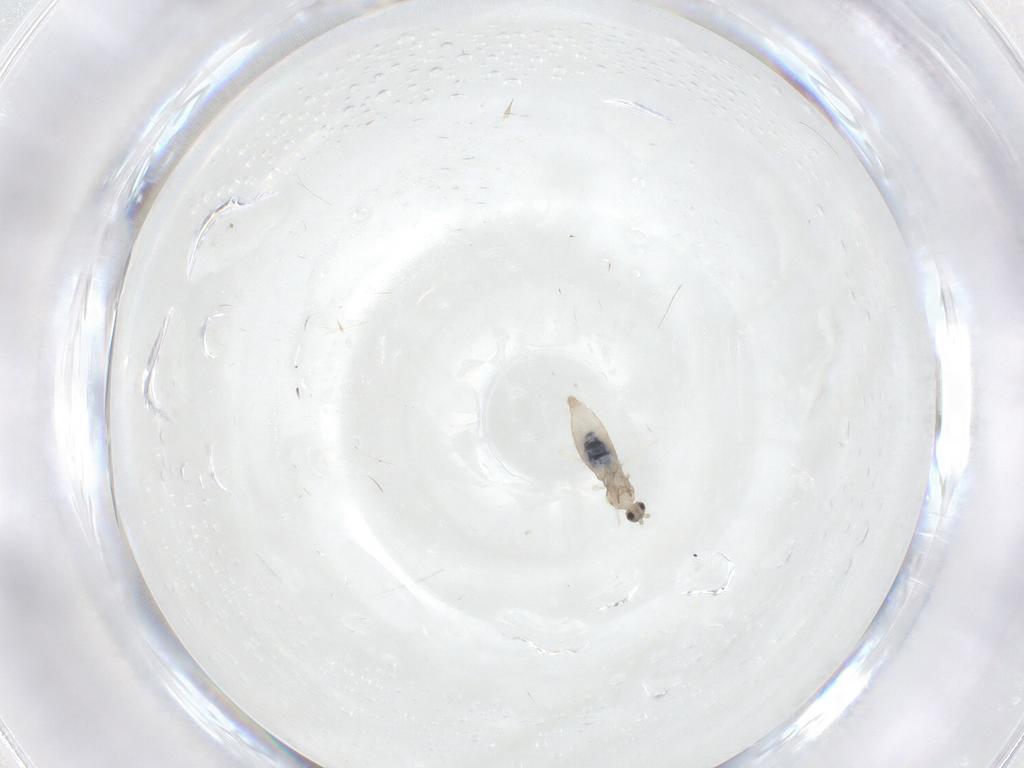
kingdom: Animalia
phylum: Arthropoda
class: Insecta
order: Diptera
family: Cecidomyiidae
